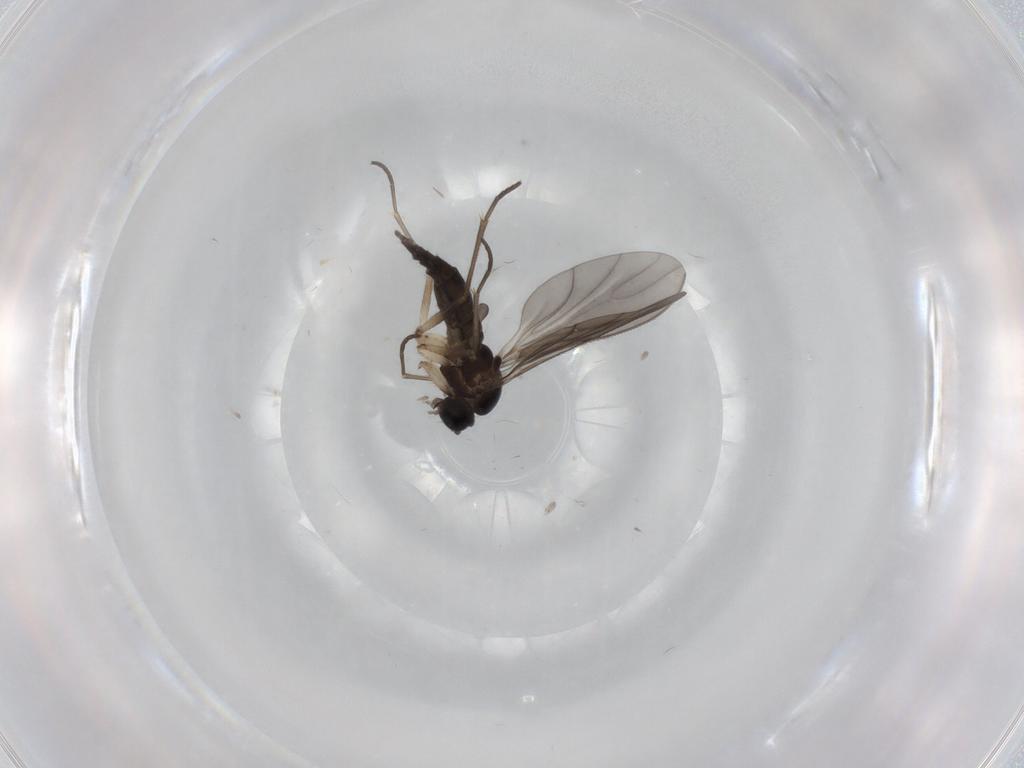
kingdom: Animalia
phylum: Arthropoda
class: Insecta
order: Diptera
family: Sciaridae
